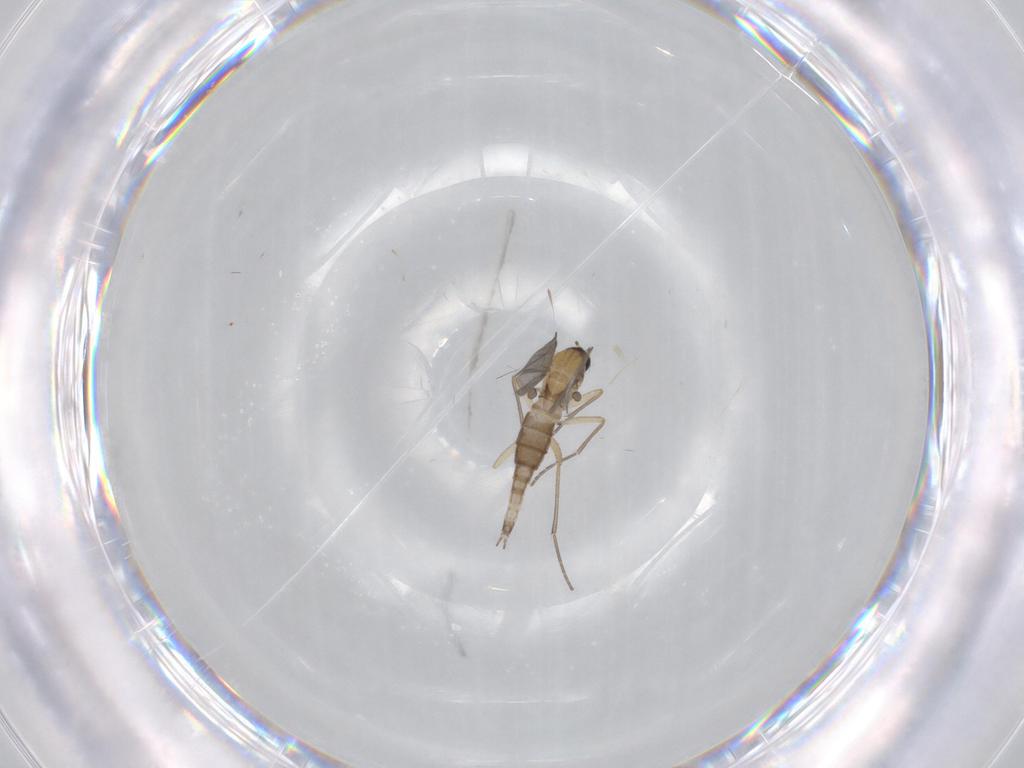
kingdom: Animalia
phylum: Arthropoda
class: Insecta
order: Diptera
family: Sciaridae
